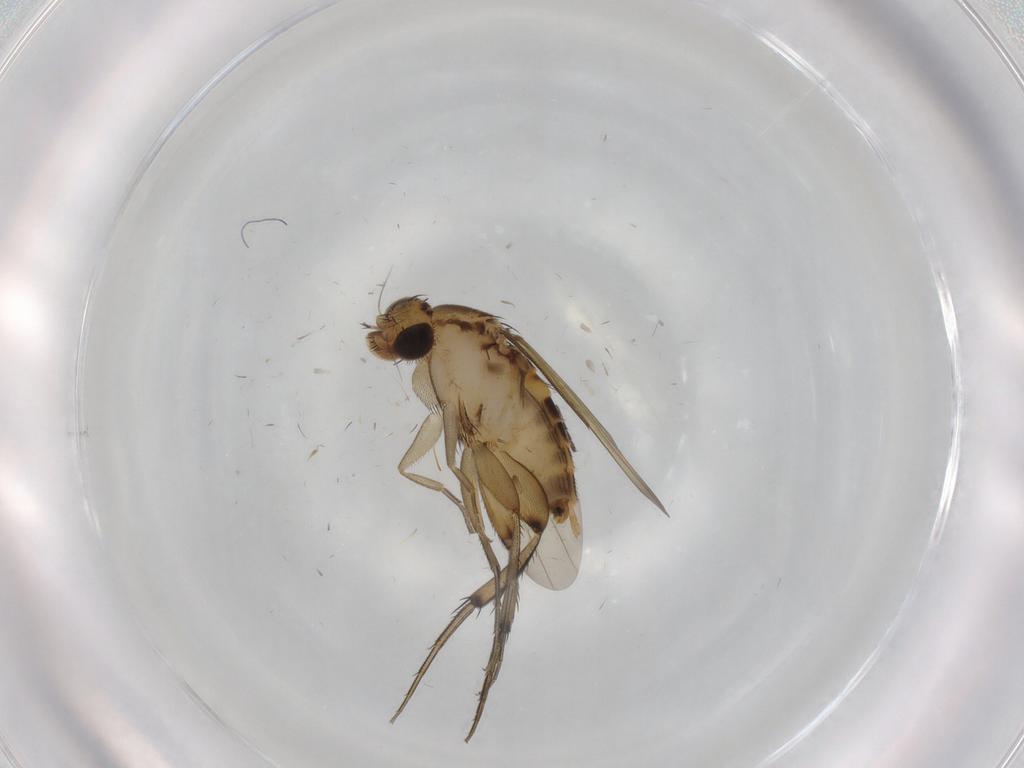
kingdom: Animalia
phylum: Arthropoda
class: Insecta
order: Diptera
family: Phoridae
